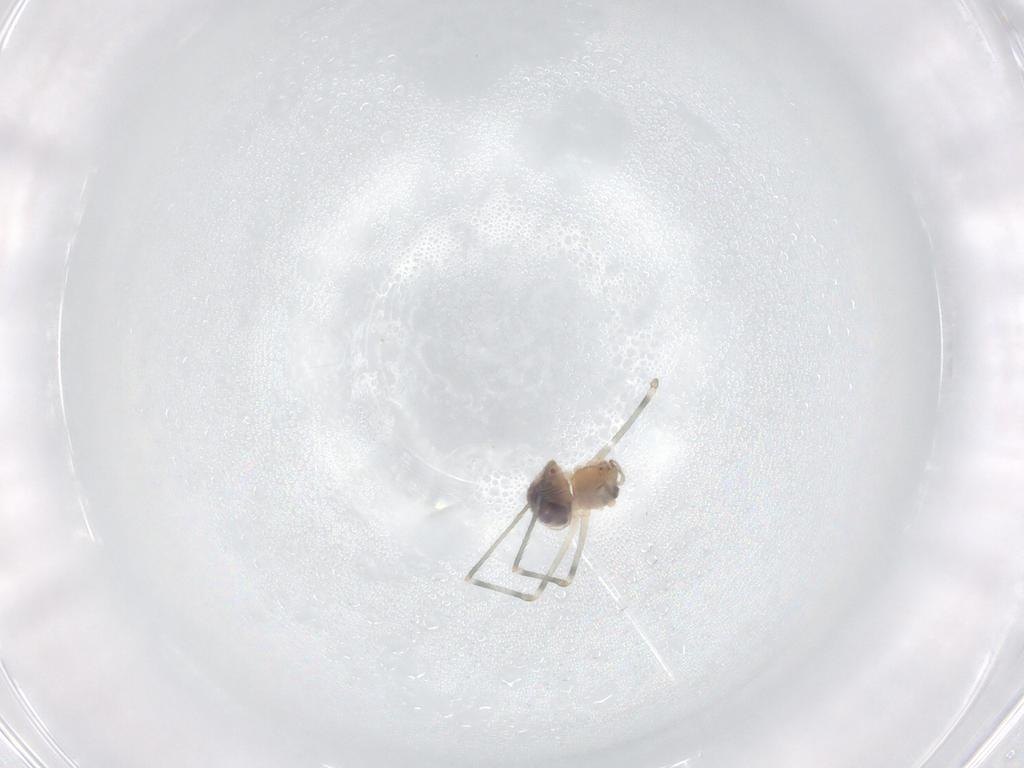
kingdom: Animalia
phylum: Arthropoda
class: Arachnida
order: Araneae
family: Pholcidae
